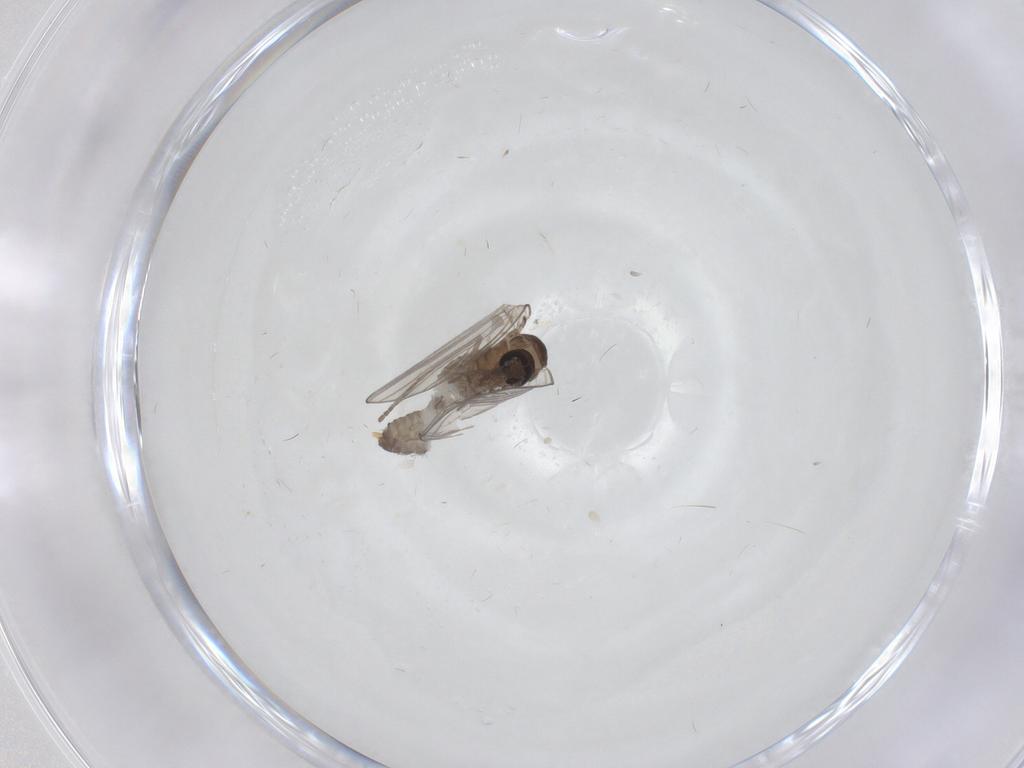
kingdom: Animalia
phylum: Arthropoda
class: Insecta
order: Diptera
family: Psychodidae
